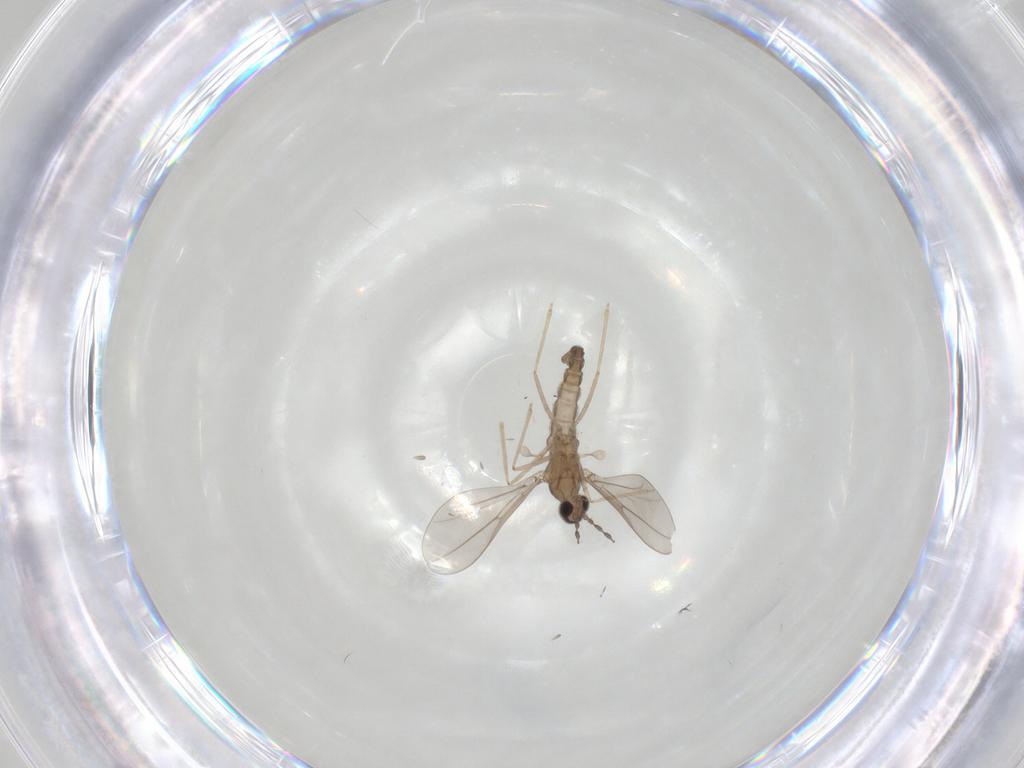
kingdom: Animalia
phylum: Arthropoda
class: Insecta
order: Diptera
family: Cecidomyiidae
